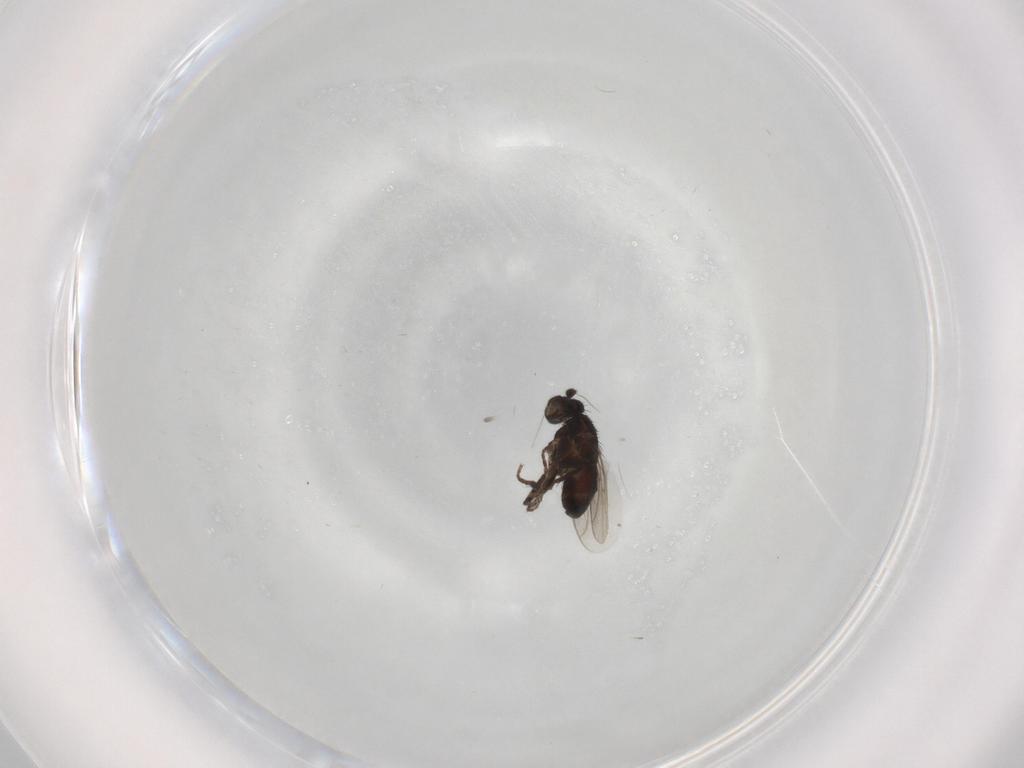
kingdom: Animalia
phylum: Arthropoda
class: Insecta
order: Diptera
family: Sphaeroceridae
